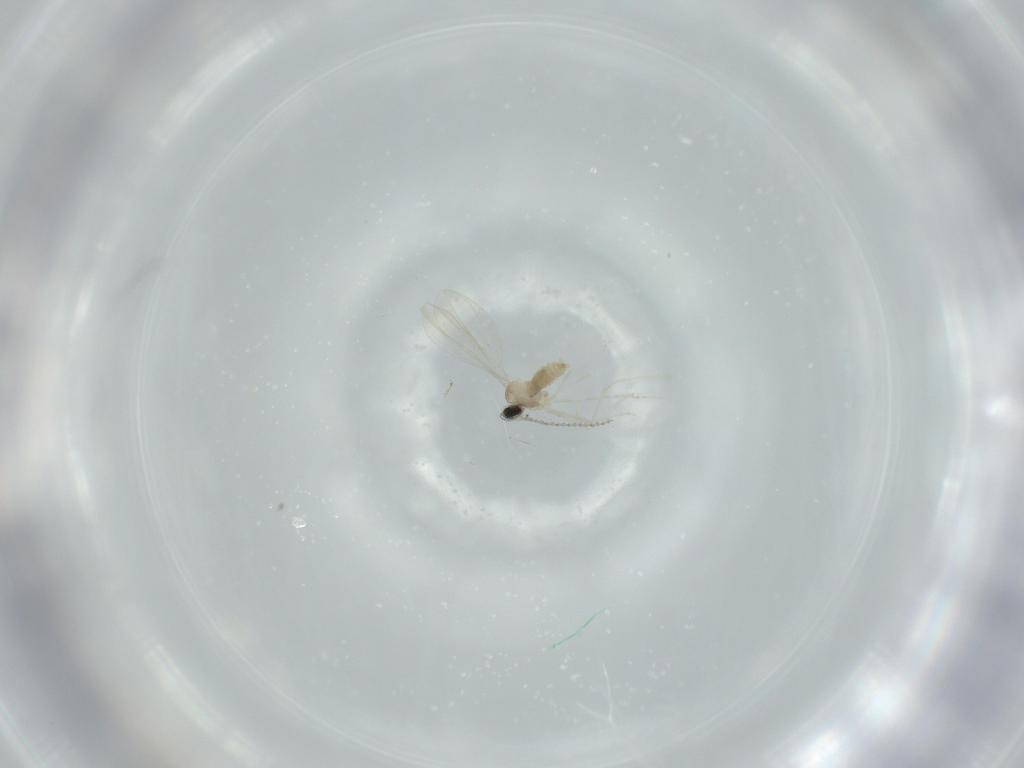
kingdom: Animalia
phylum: Arthropoda
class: Insecta
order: Diptera
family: Cecidomyiidae
